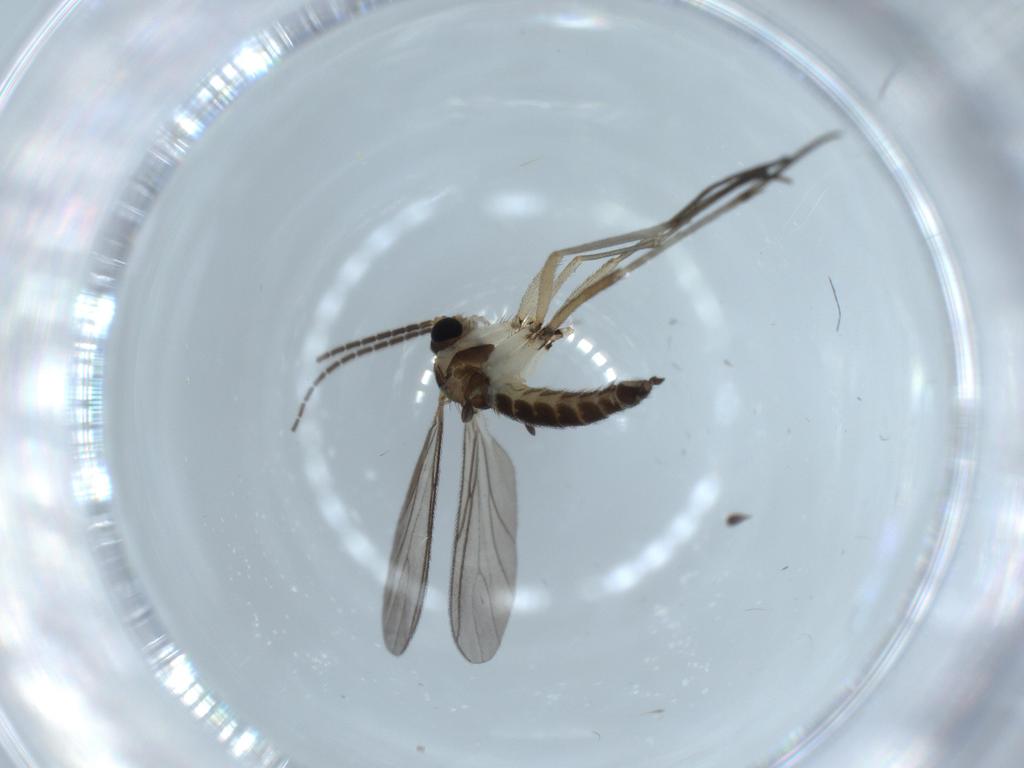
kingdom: Animalia
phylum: Arthropoda
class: Insecta
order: Diptera
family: Sciaridae
